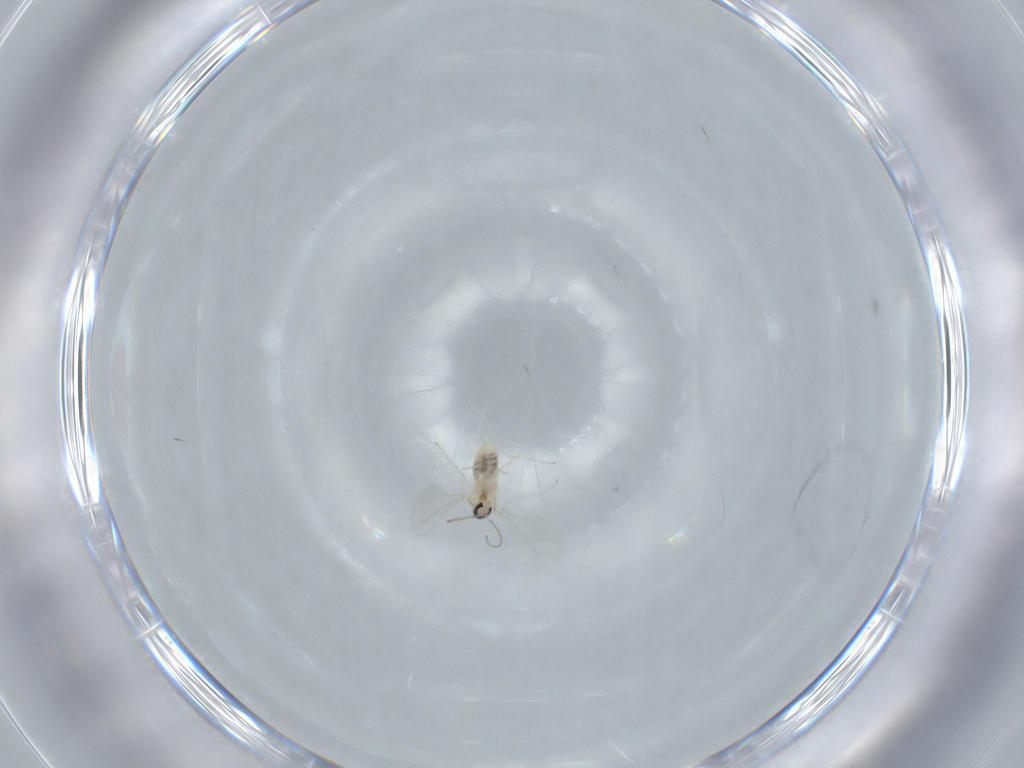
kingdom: Animalia
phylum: Arthropoda
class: Insecta
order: Diptera
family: Cecidomyiidae
